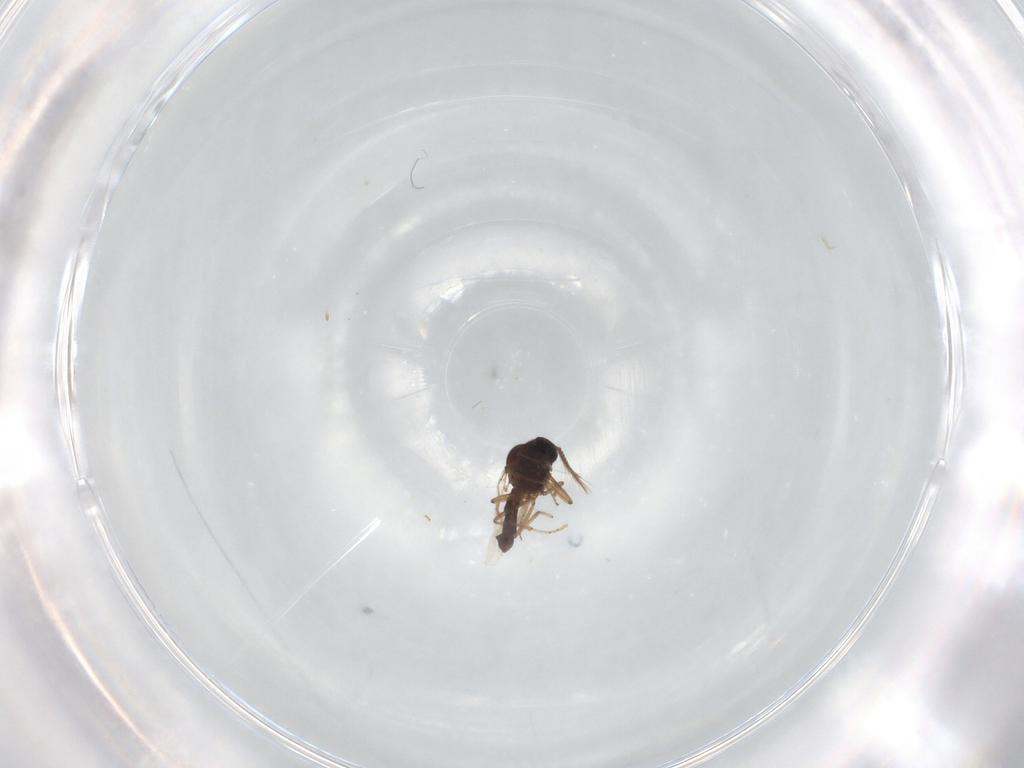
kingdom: Animalia
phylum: Arthropoda
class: Insecta
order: Diptera
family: Ceratopogonidae
